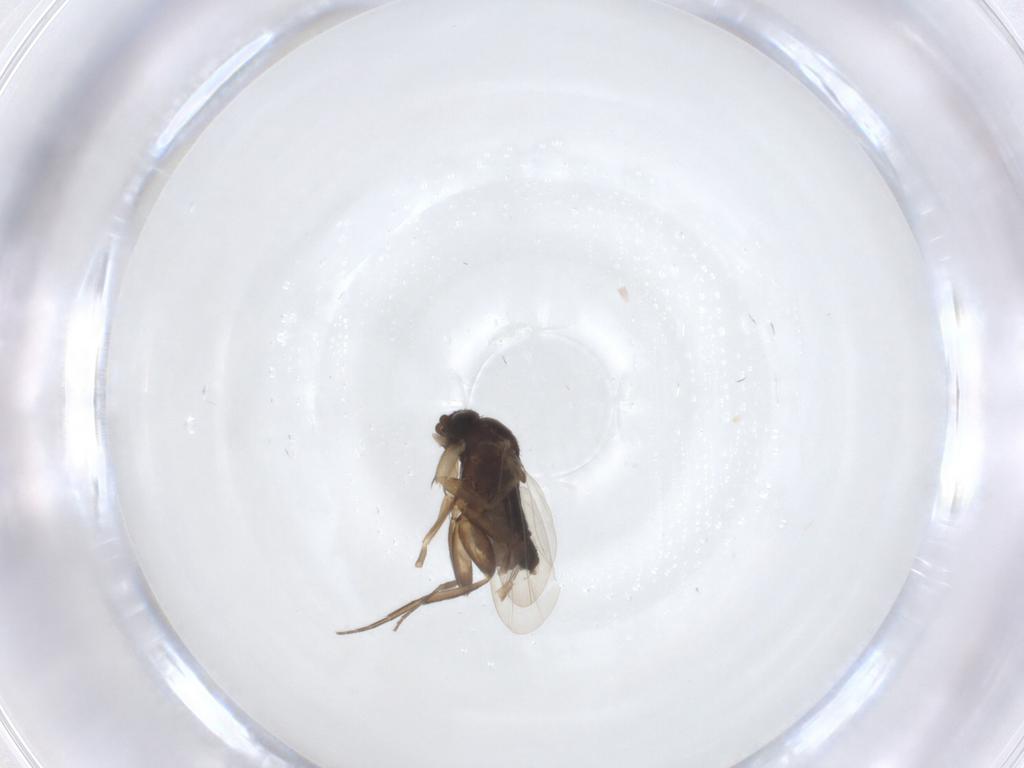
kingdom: Animalia
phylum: Arthropoda
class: Insecta
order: Diptera
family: Phoridae
